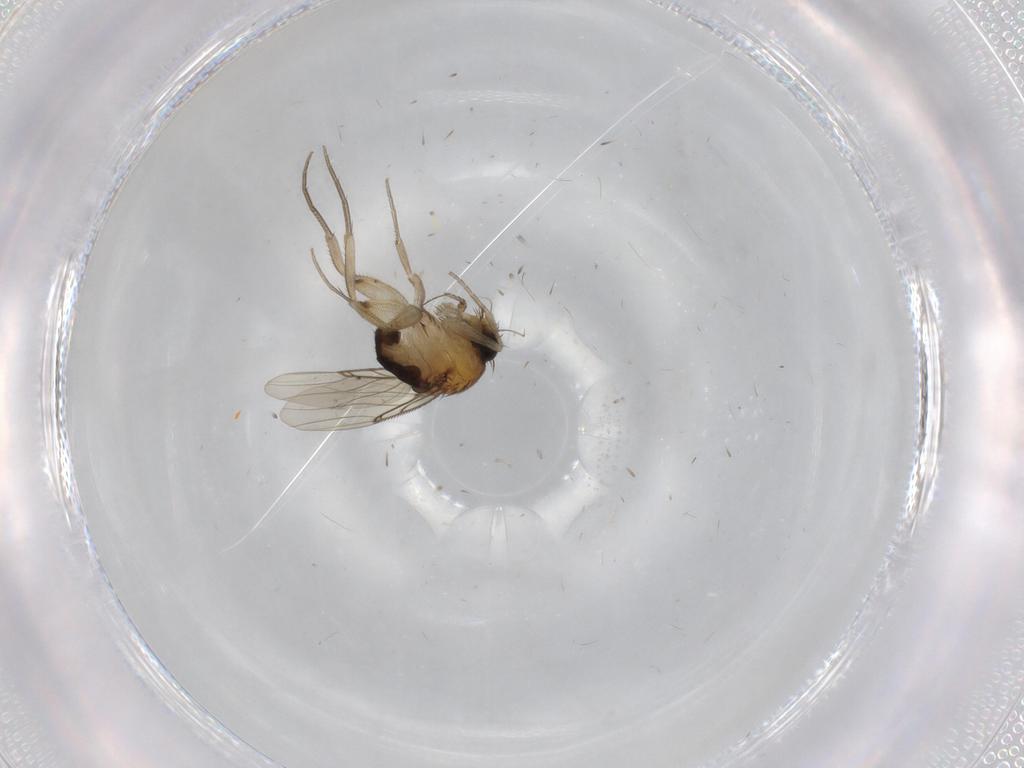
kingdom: Animalia
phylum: Arthropoda
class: Insecta
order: Diptera
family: Phoridae
